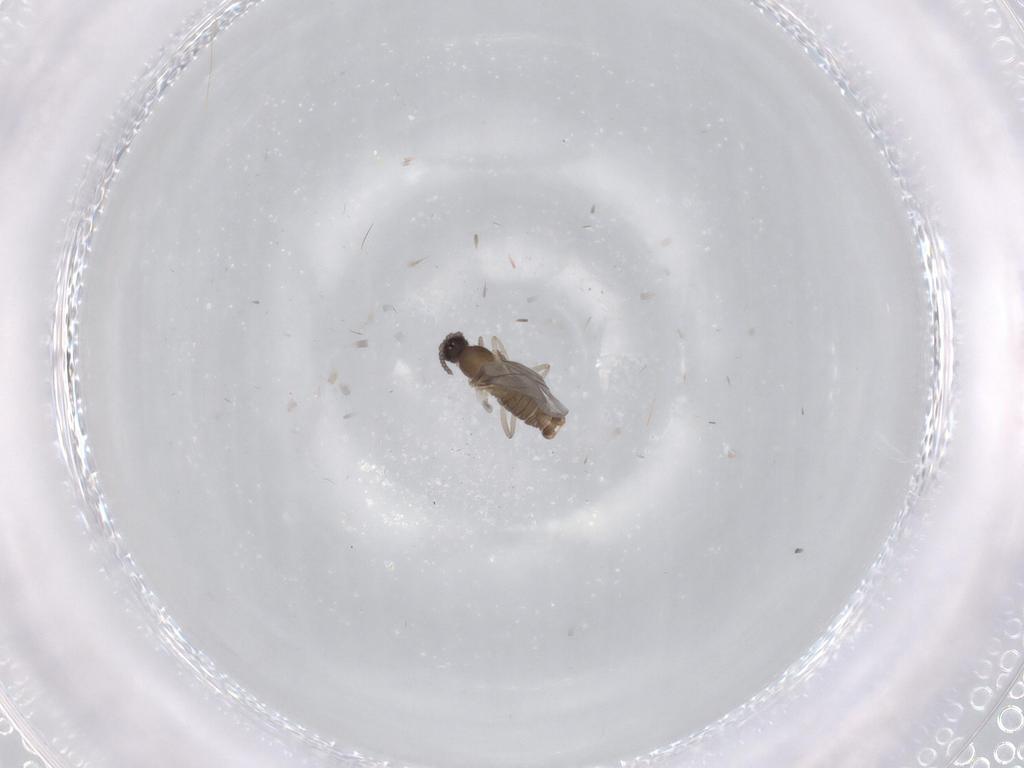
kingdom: Animalia
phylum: Arthropoda
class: Insecta
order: Diptera
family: Cecidomyiidae
